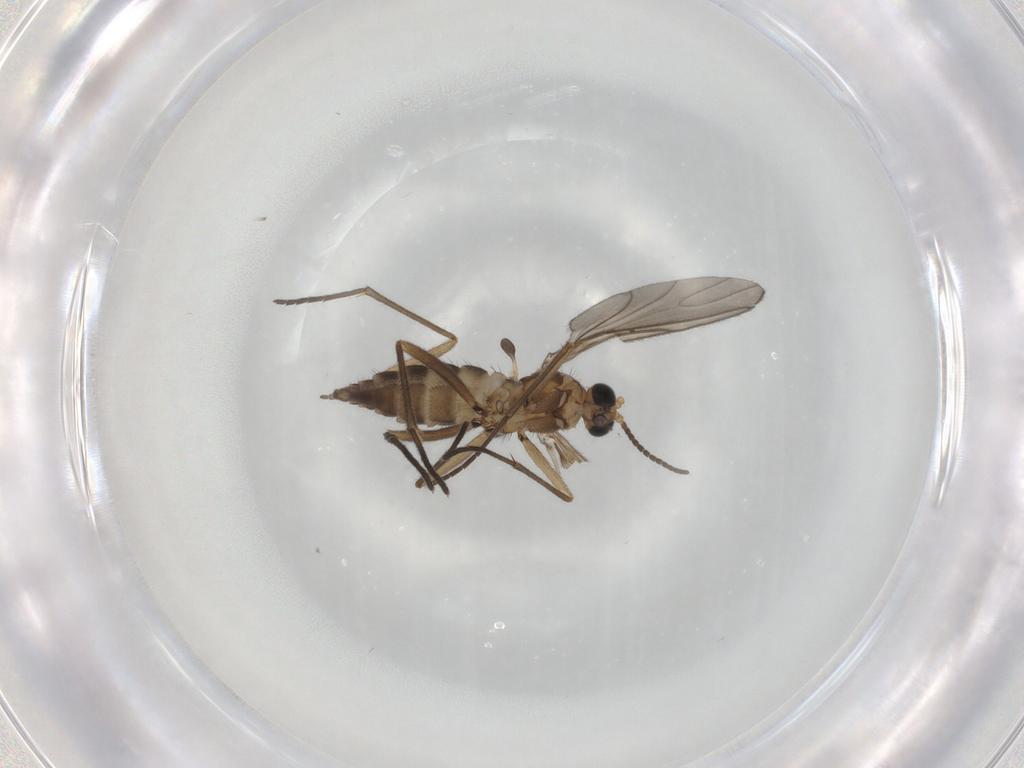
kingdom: Animalia
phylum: Arthropoda
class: Insecta
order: Diptera
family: Sciaridae
